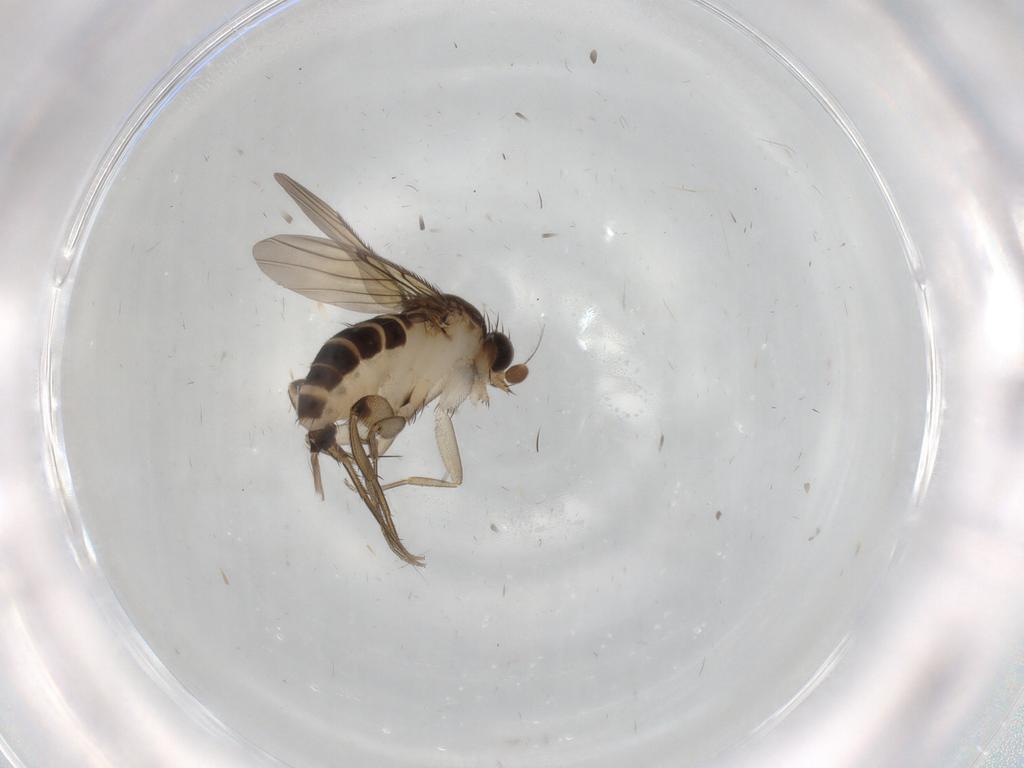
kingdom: Animalia
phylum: Arthropoda
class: Insecta
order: Diptera
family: Phoridae
